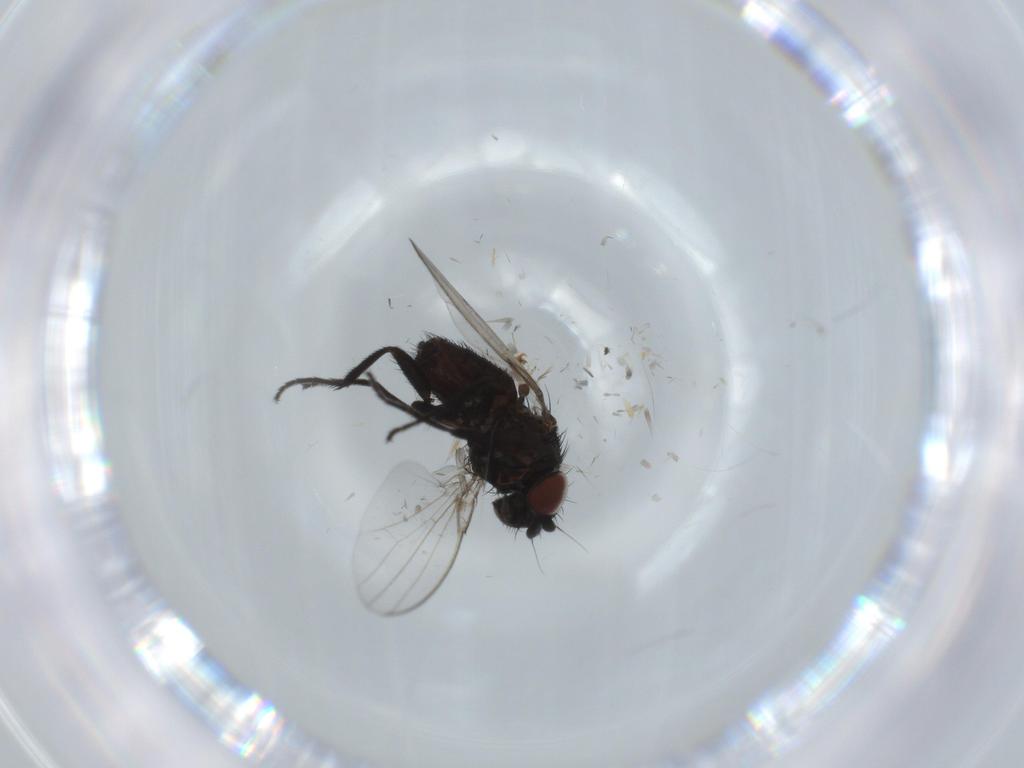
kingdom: Animalia
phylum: Arthropoda
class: Insecta
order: Diptera
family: Milichiidae
